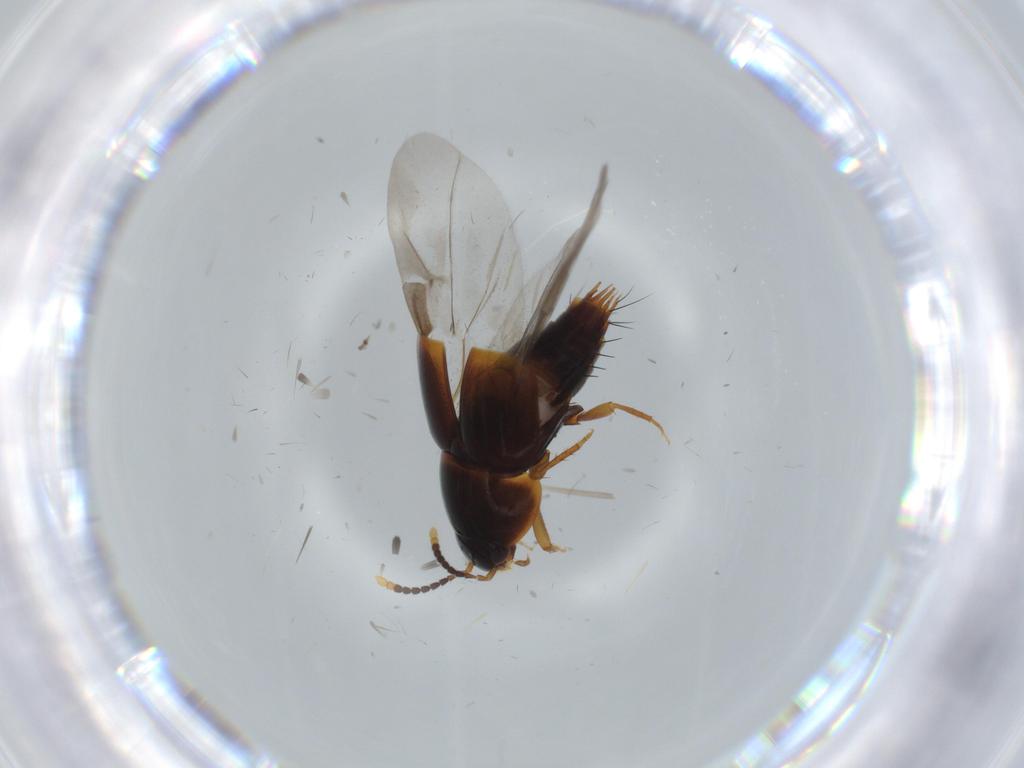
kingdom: Animalia
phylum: Arthropoda
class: Insecta
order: Coleoptera
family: Staphylinidae
